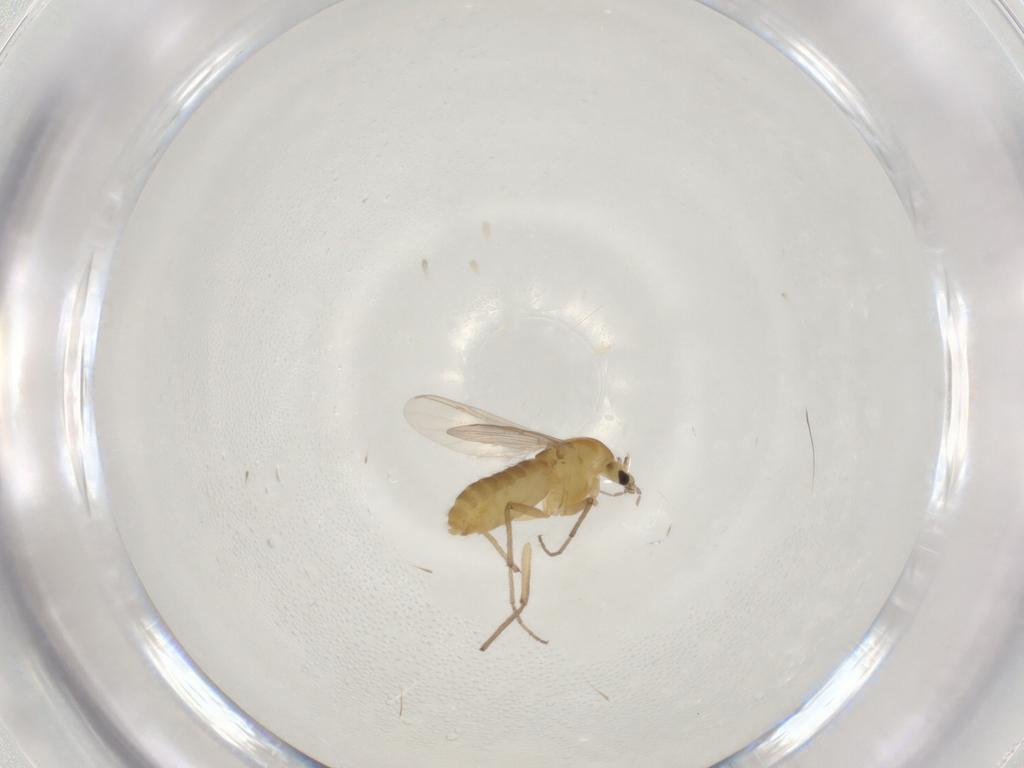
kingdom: Animalia
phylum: Arthropoda
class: Insecta
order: Diptera
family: Chironomidae
